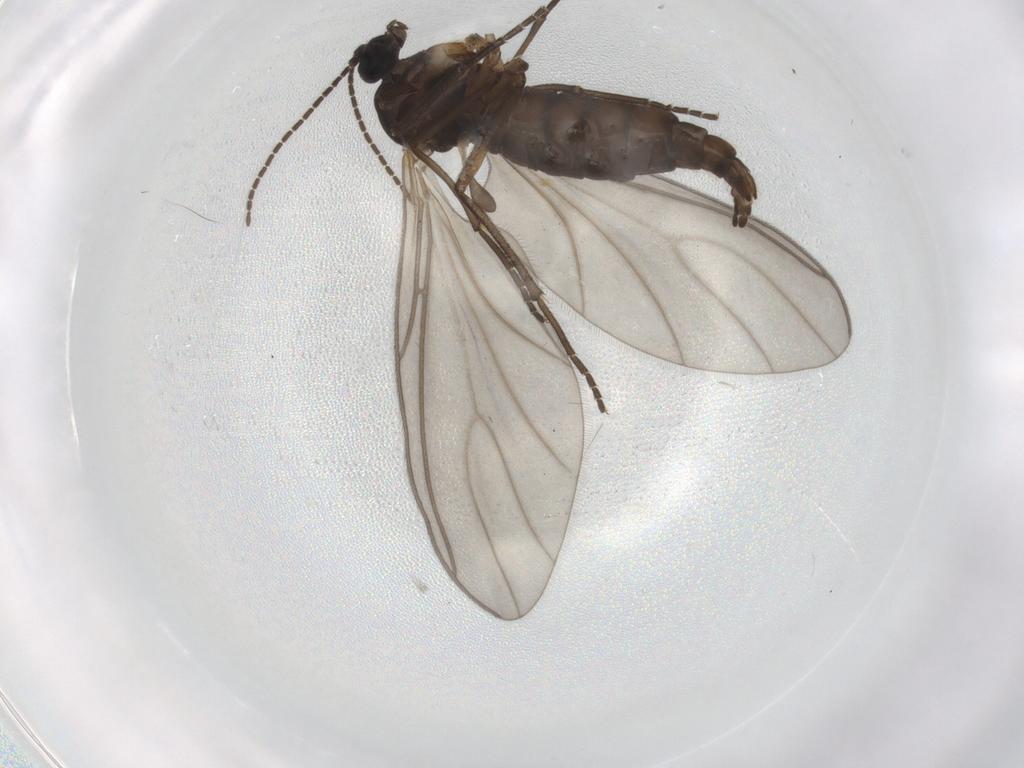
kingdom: Animalia
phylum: Arthropoda
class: Insecta
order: Diptera
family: Sciaridae
